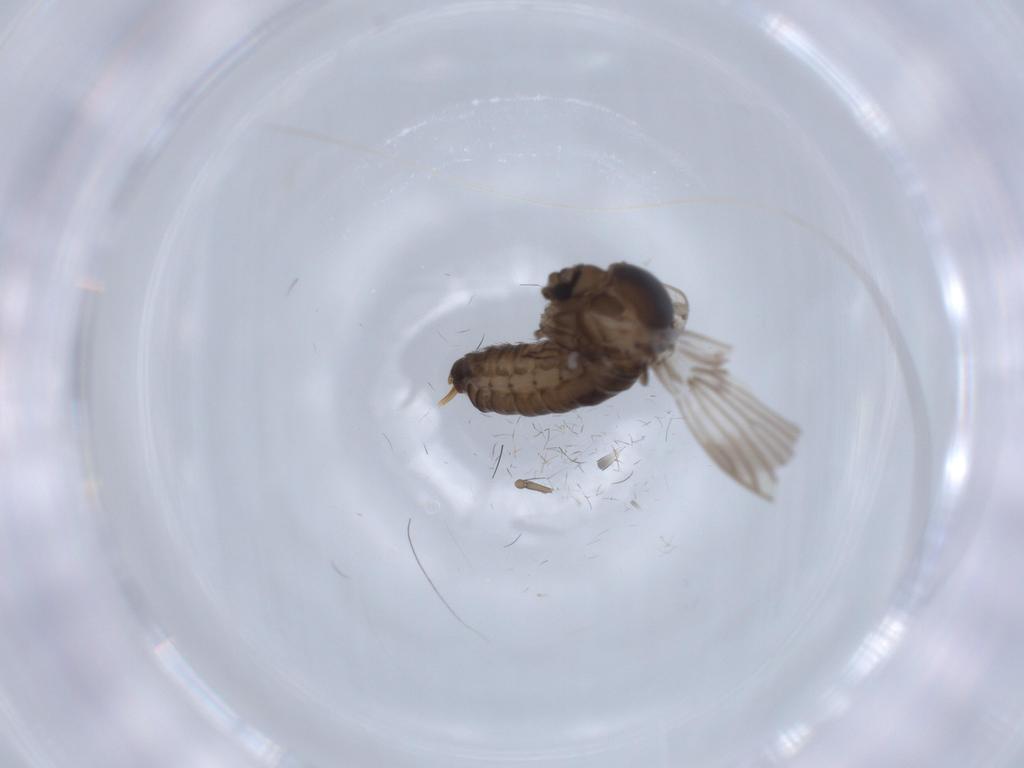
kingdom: Animalia
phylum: Arthropoda
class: Insecta
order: Diptera
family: Psychodidae
